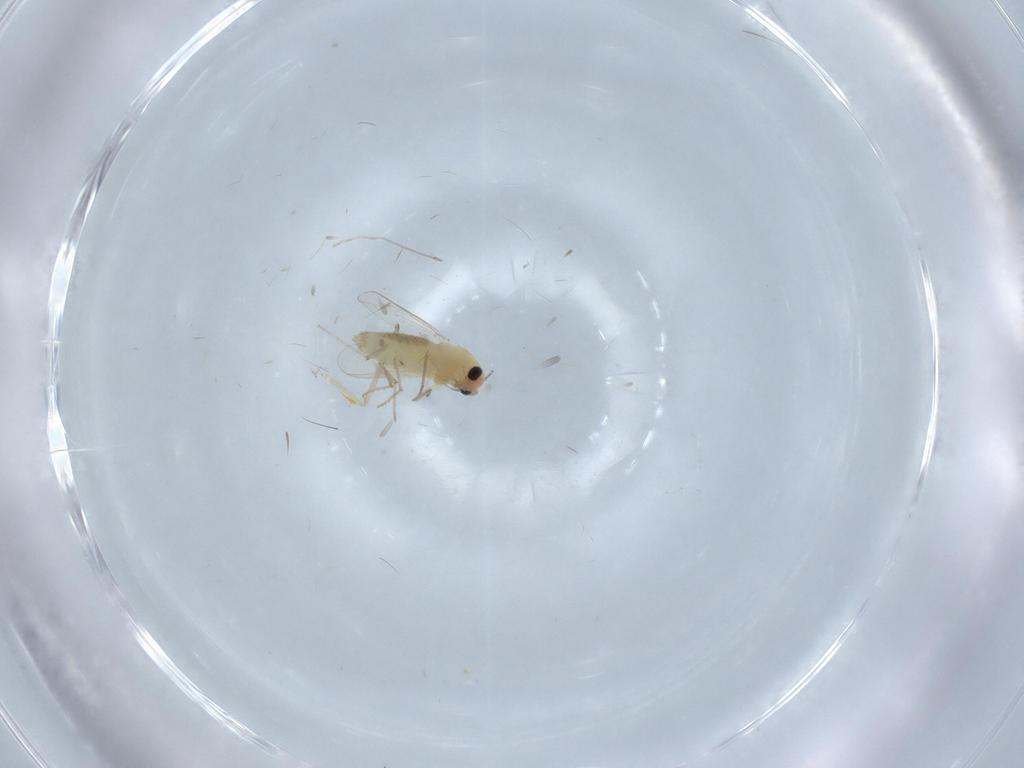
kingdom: Animalia
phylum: Arthropoda
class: Insecta
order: Diptera
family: Chironomidae
